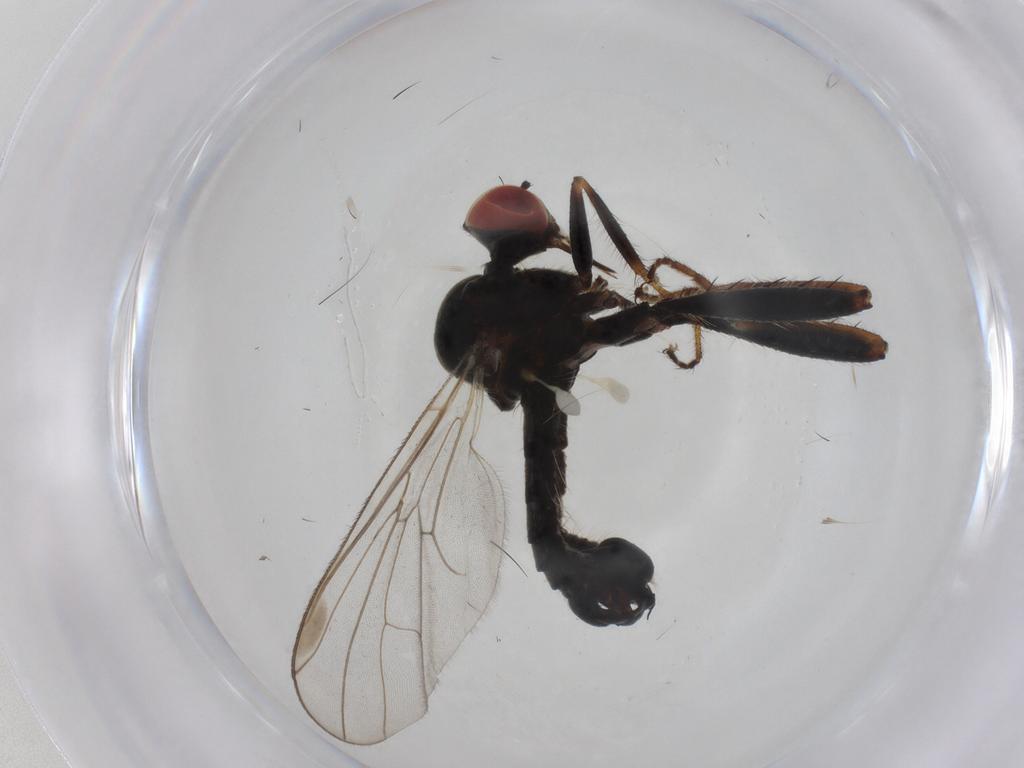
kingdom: Animalia
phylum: Arthropoda
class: Insecta
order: Diptera
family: Hybotidae
